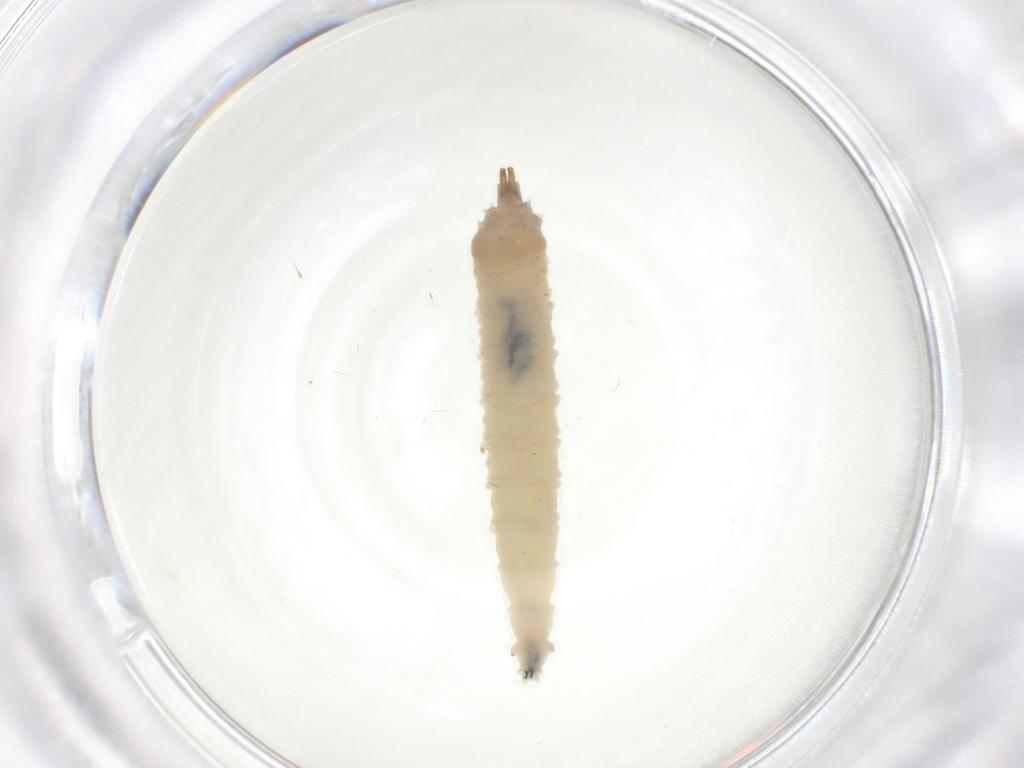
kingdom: Animalia
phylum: Arthropoda
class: Insecta
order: Diptera
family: Drosophilidae
